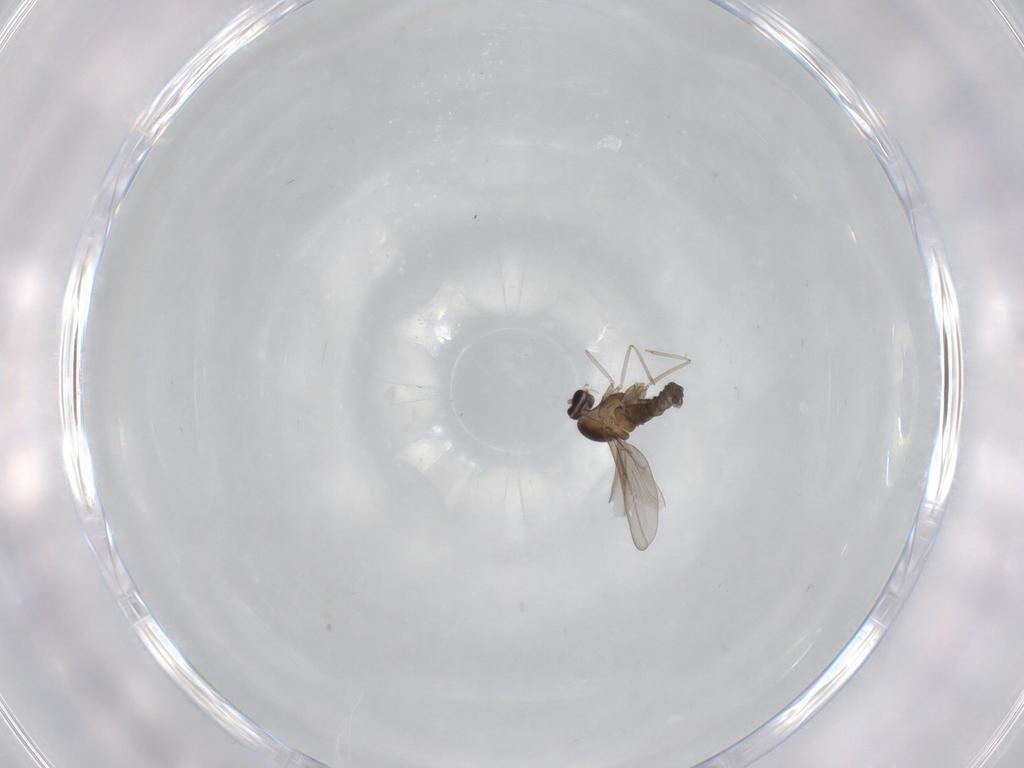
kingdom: Animalia
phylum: Arthropoda
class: Insecta
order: Diptera
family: Cecidomyiidae
